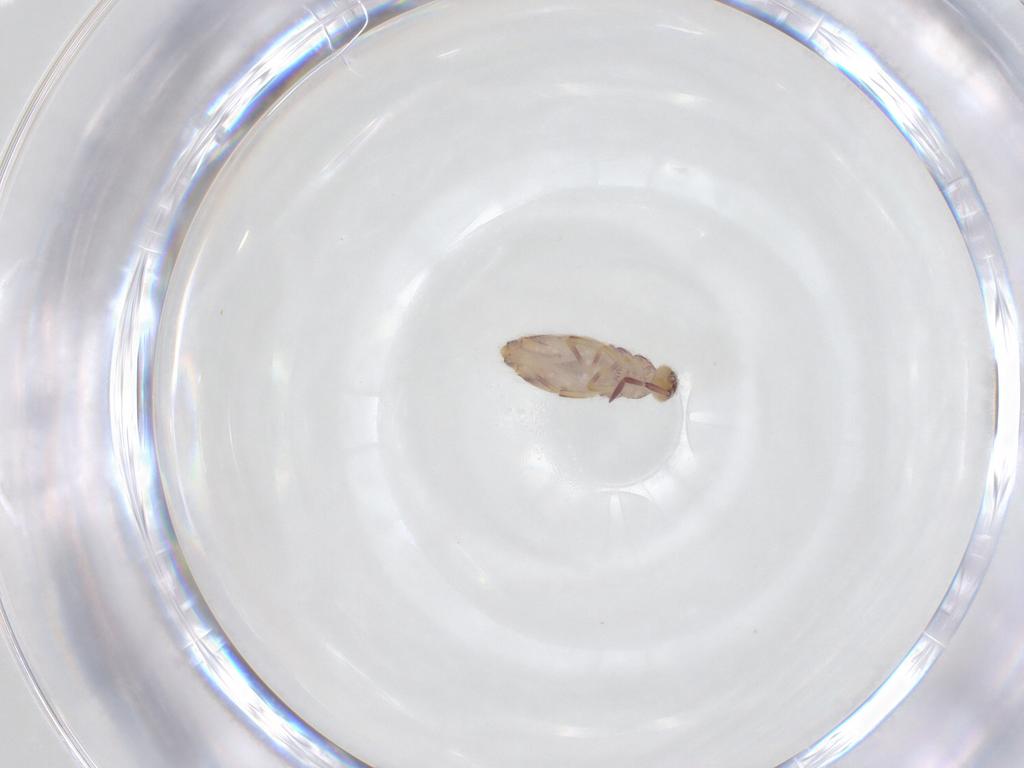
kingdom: Animalia
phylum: Arthropoda
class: Collembola
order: Entomobryomorpha
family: Entomobryidae
